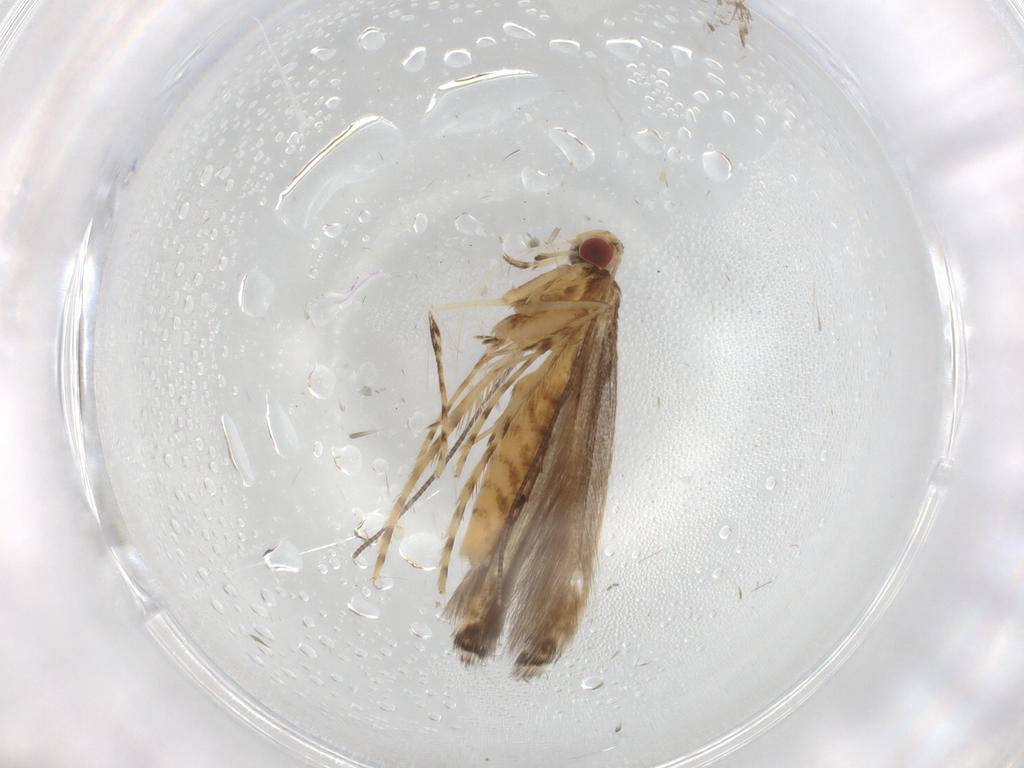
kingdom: Animalia
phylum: Arthropoda
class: Insecta
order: Lepidoptera
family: Gracillariidae
